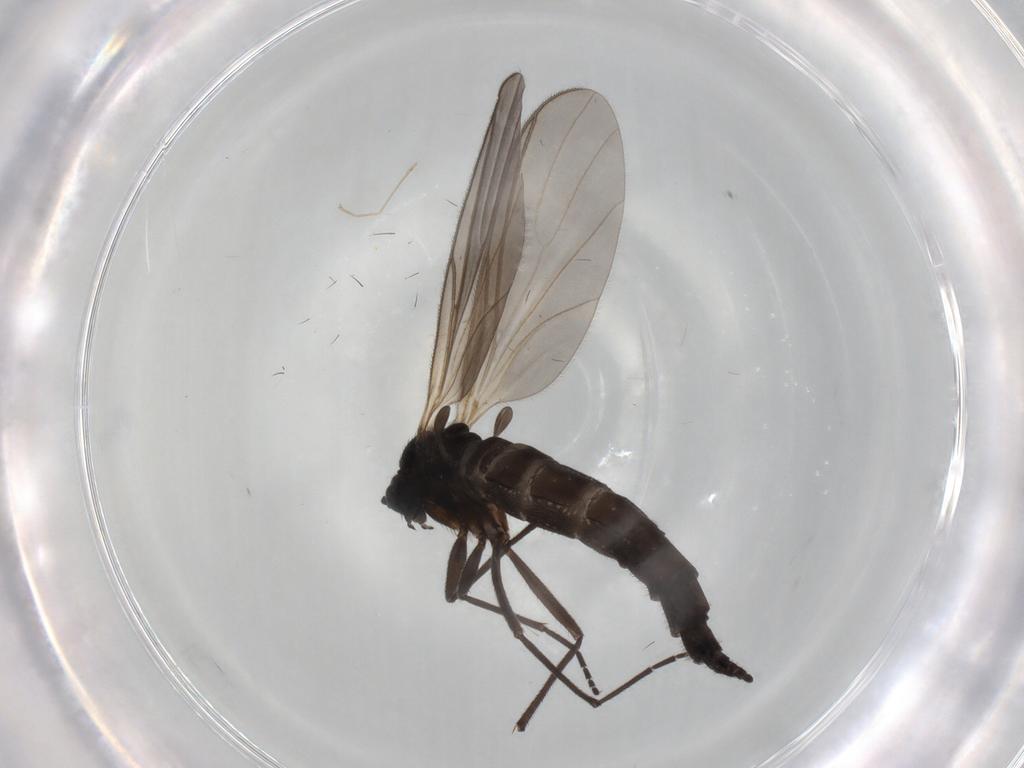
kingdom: Animalia
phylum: Arthropoda
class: Insecta
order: Diptera
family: Cecidomyiidae
